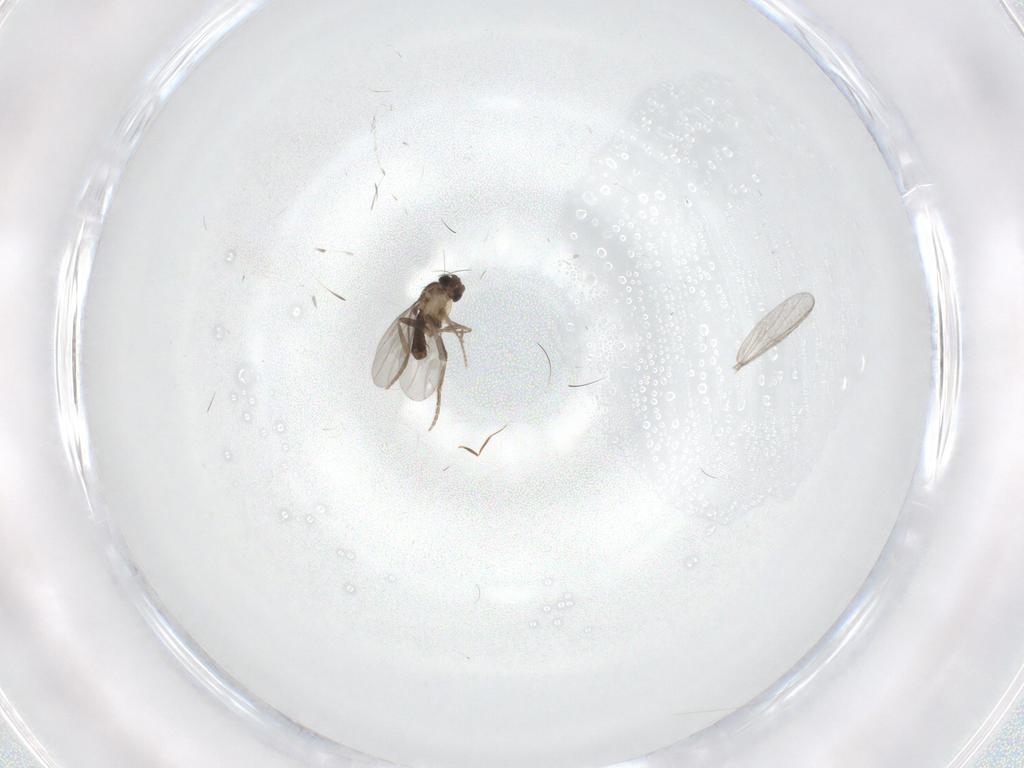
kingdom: Animalia
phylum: Arthropoda
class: Insecta
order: Diptera
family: Chironomidae
